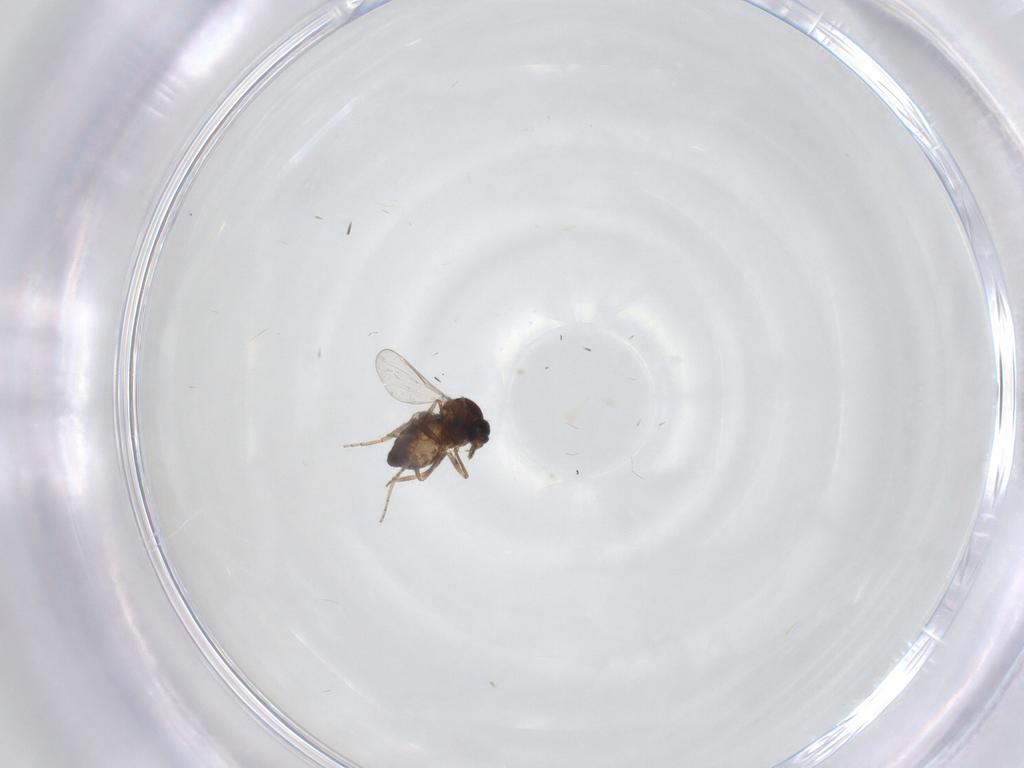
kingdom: Animalia
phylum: Arthropoda
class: Insecta
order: Diptera
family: Ceratopogonidae
